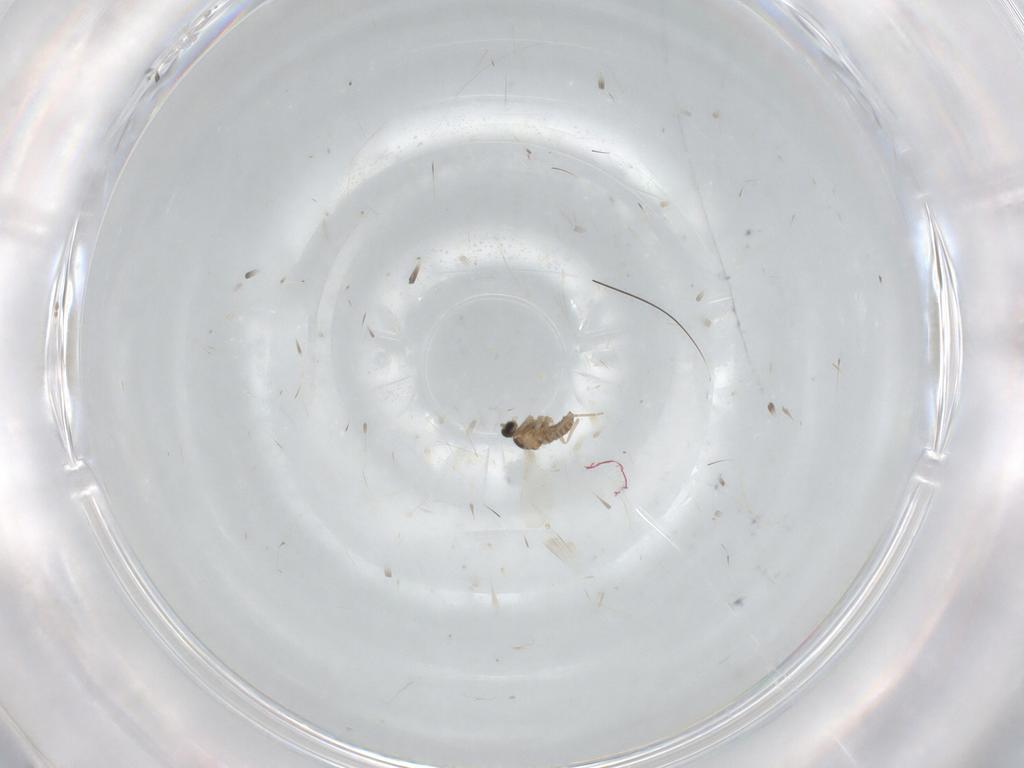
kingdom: Animalia
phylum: Arthropoda
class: Insecta
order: Diptera
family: Cecidomyiidae
